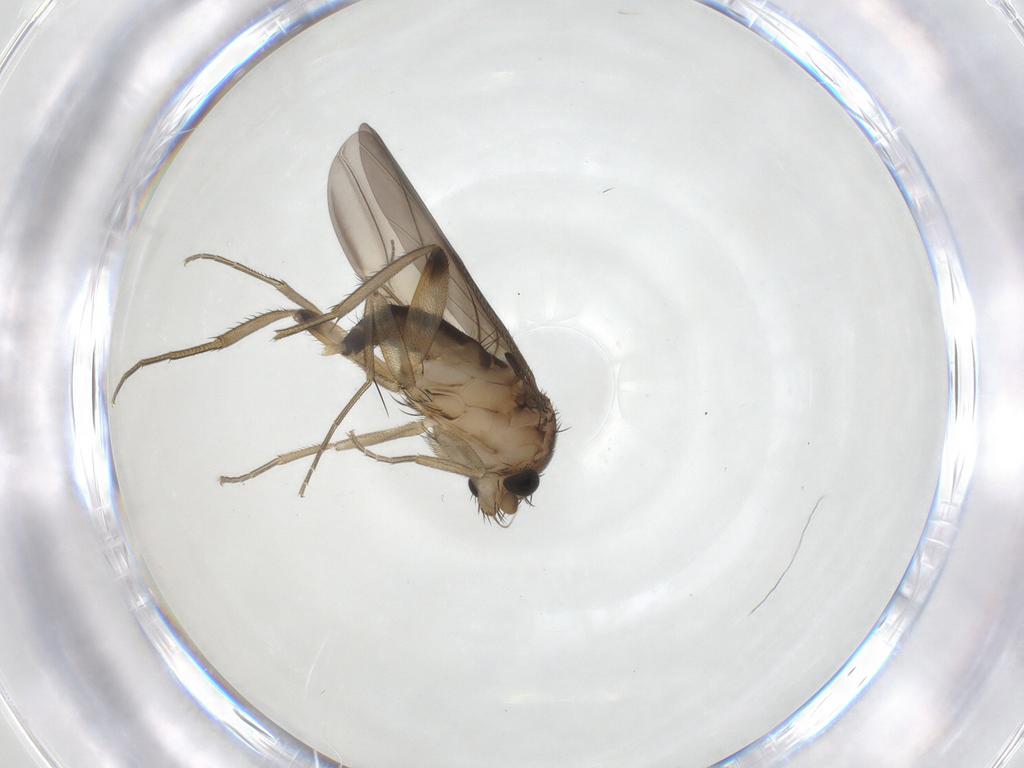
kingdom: Animalia
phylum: Arthropoda
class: Insecta
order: Diptera
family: Phoridae
